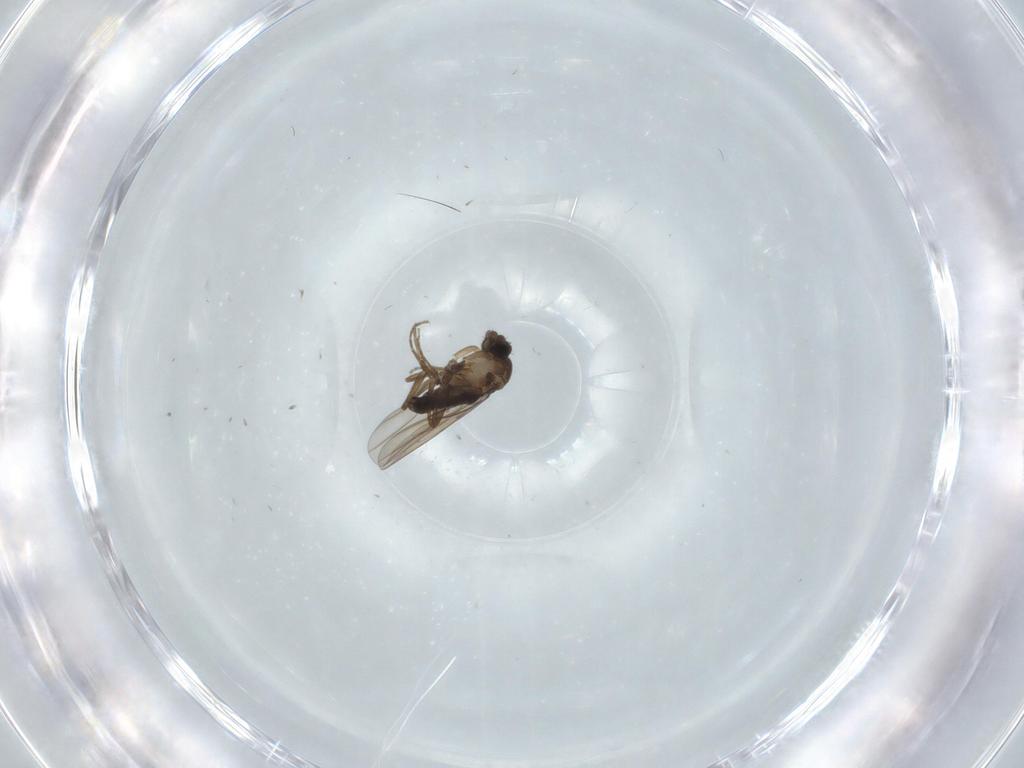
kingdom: Animalia
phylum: Arthropoda
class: Insecta
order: Diptera
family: Phoridae
